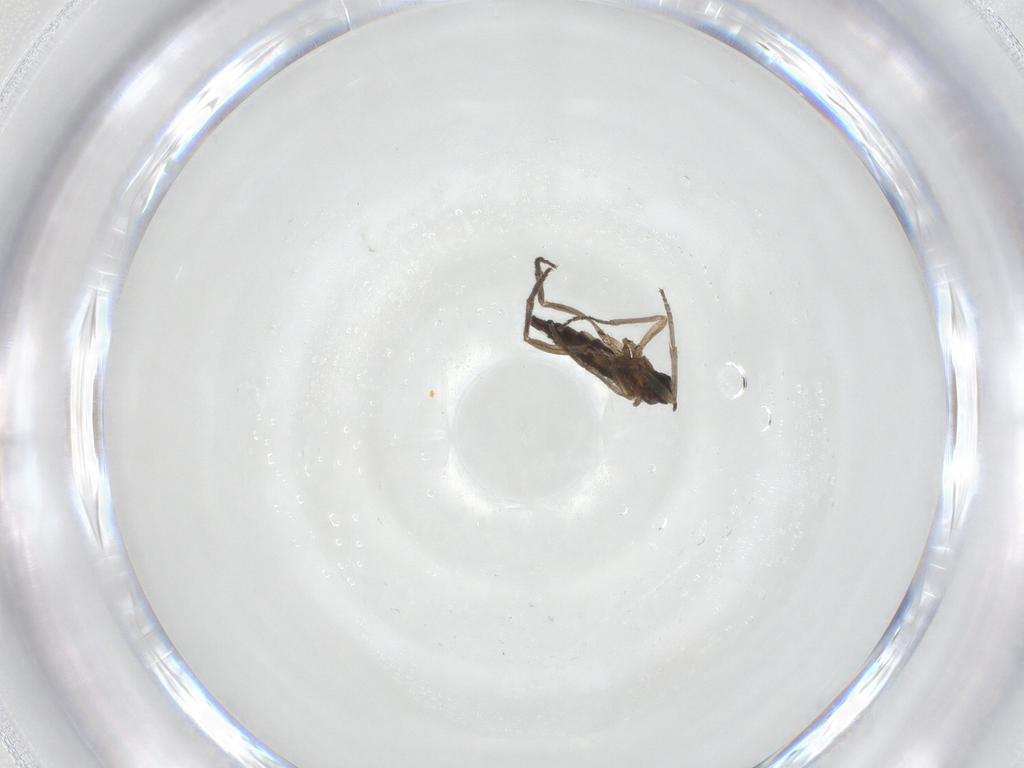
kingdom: Animalia
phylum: Arthropoda
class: Insecta
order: Diptera
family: Sciaridae
